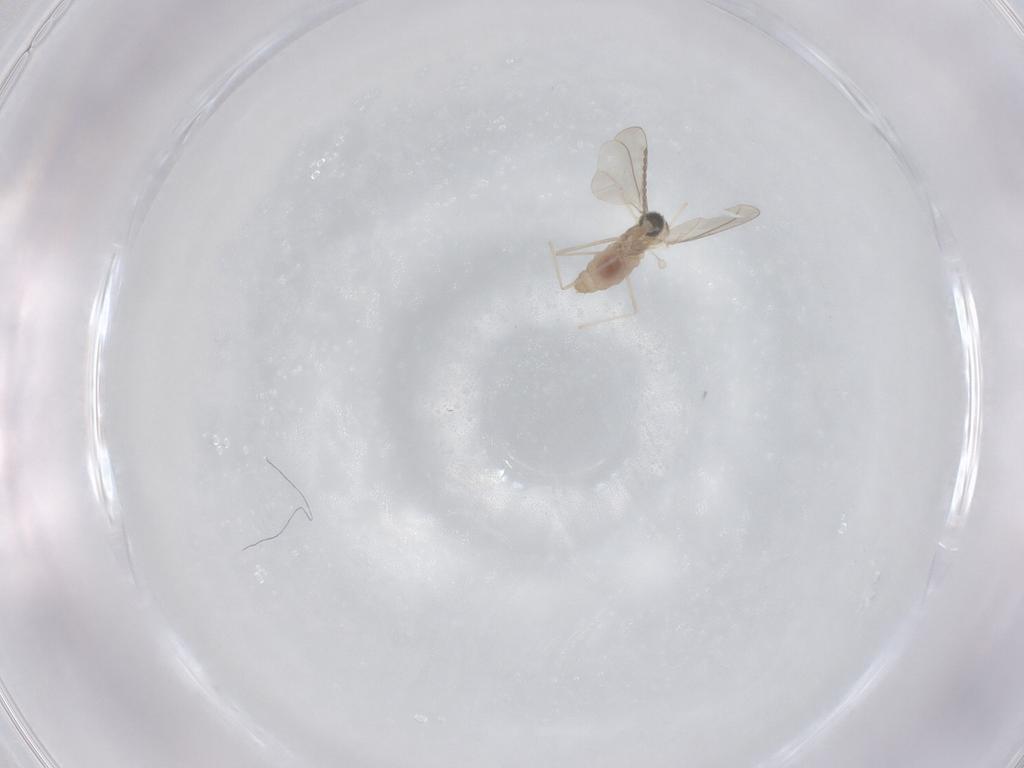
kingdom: Animalia
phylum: Arthropoda
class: Insecta
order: Diptera
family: Cecidomyiidae
